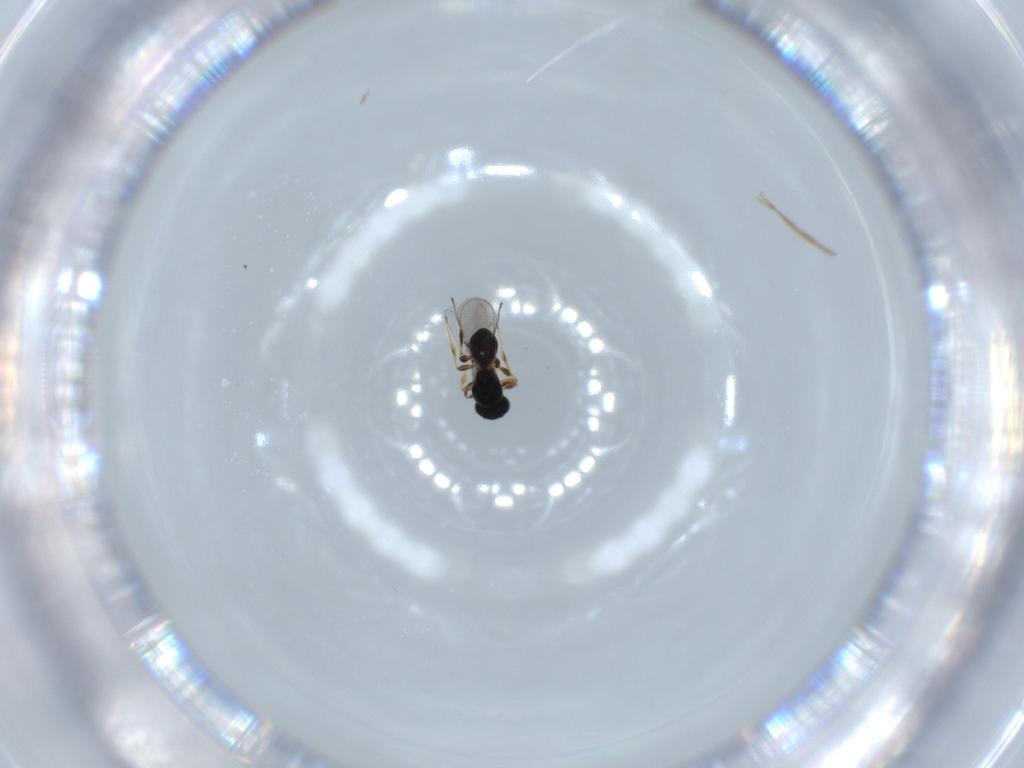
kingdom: Animalia
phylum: Arthropoda
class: Insecta
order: Hymenoptera
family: Platygastridae
